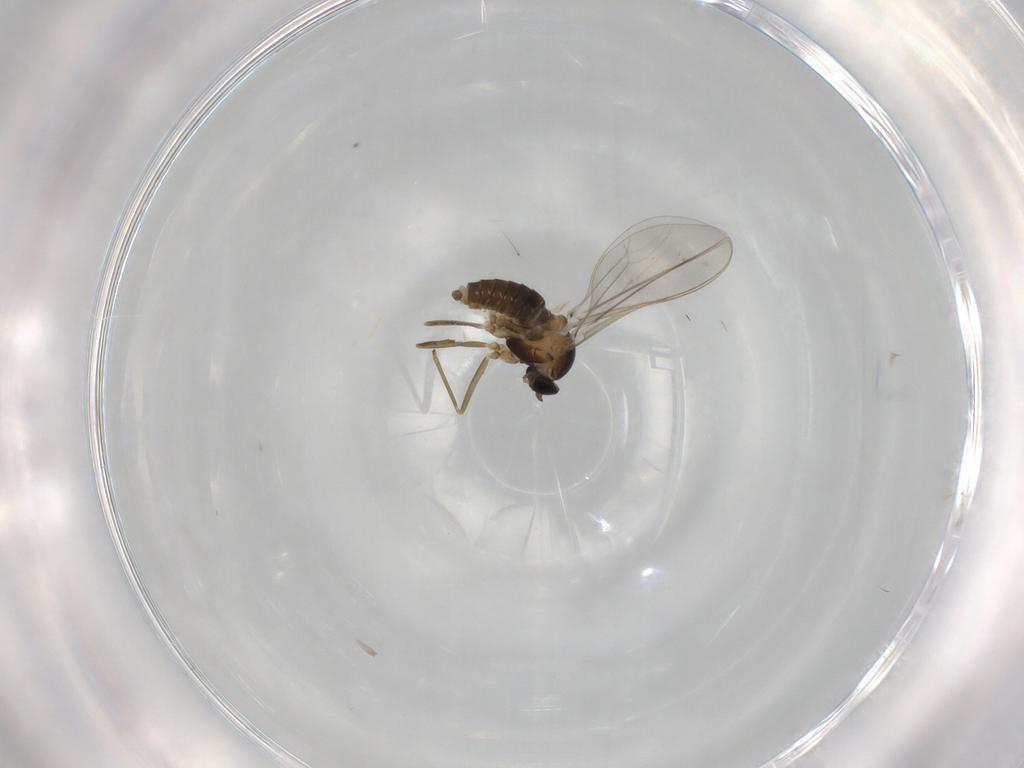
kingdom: Animalia
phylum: Arthropoda
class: Insecta
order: Diptera
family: Cecidomyiidae
